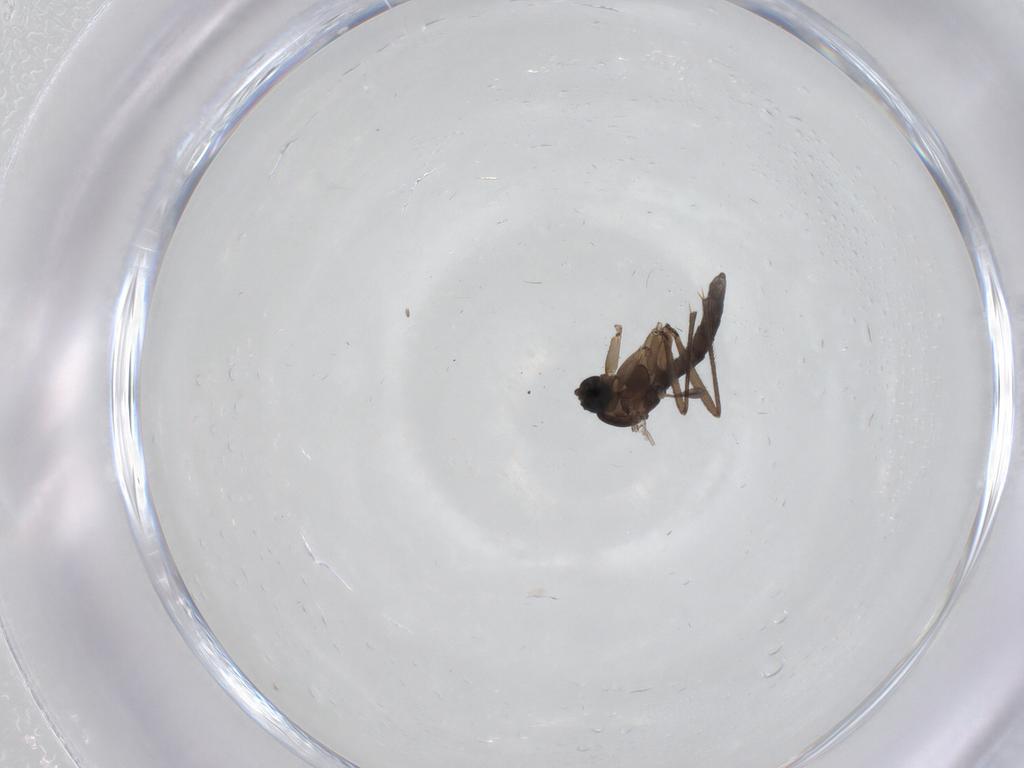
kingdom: Animalia
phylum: Arthropoda
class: Insecta
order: Diptera
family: Sciaridae
